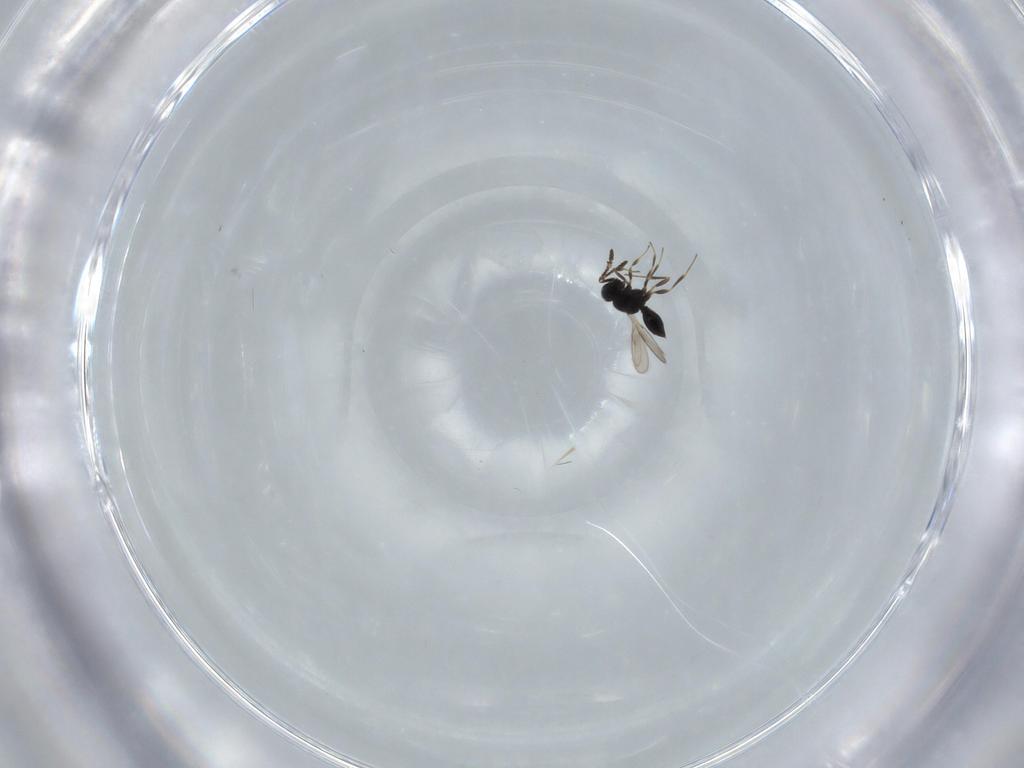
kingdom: Animalia
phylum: Arthropoda
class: Insecta
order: Hymenoptera
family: Scelionidae
